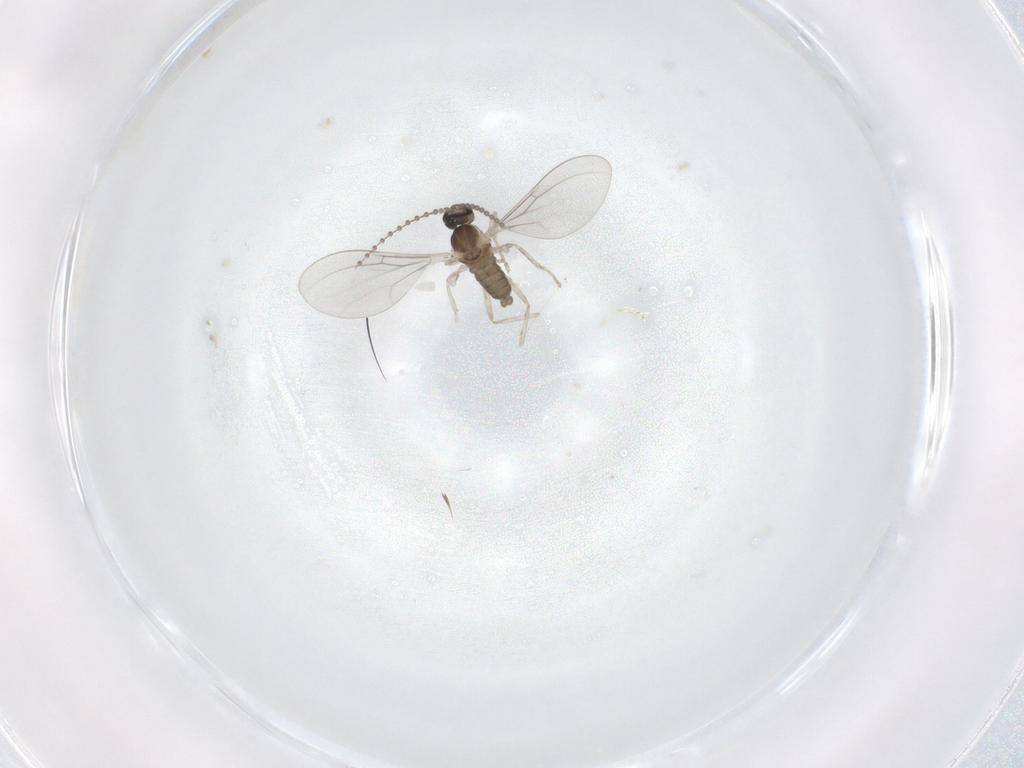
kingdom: Animalia
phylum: Arthropoda
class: Insecta
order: Diptera
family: Cecidomyiidae
